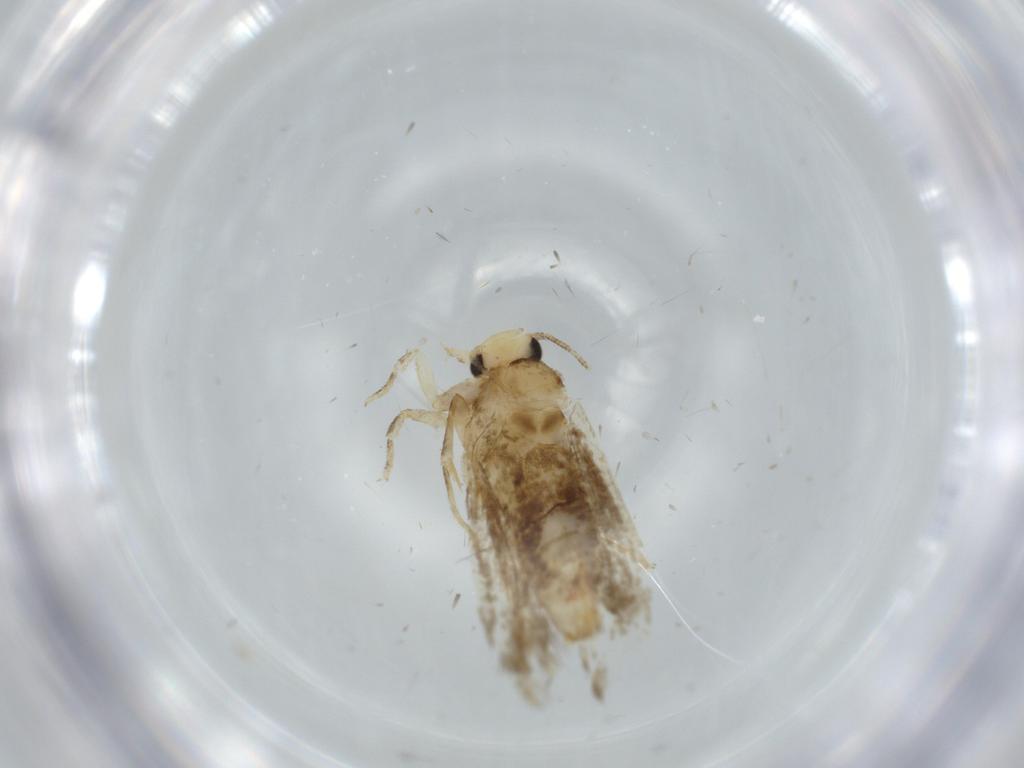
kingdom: Animalia
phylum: Arthropoda
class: Insecta
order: Lepidoptera
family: Tineidae
